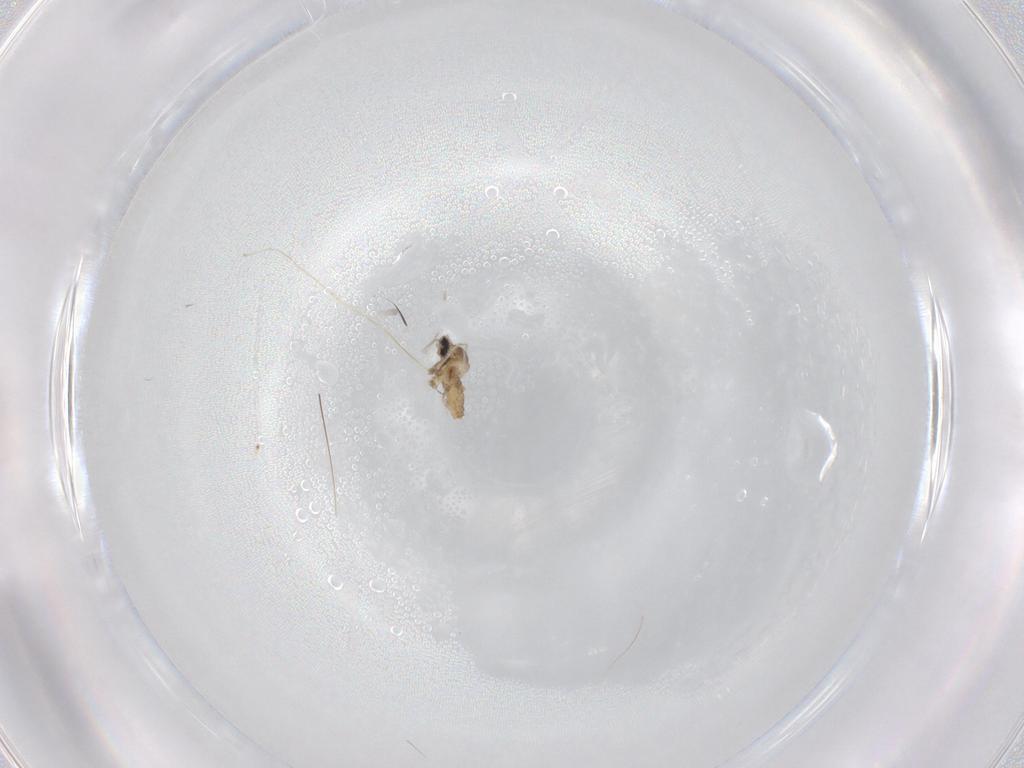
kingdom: Animalia
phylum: Arthropoda
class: Insecta
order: Diptera
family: Cecidomyiidae
